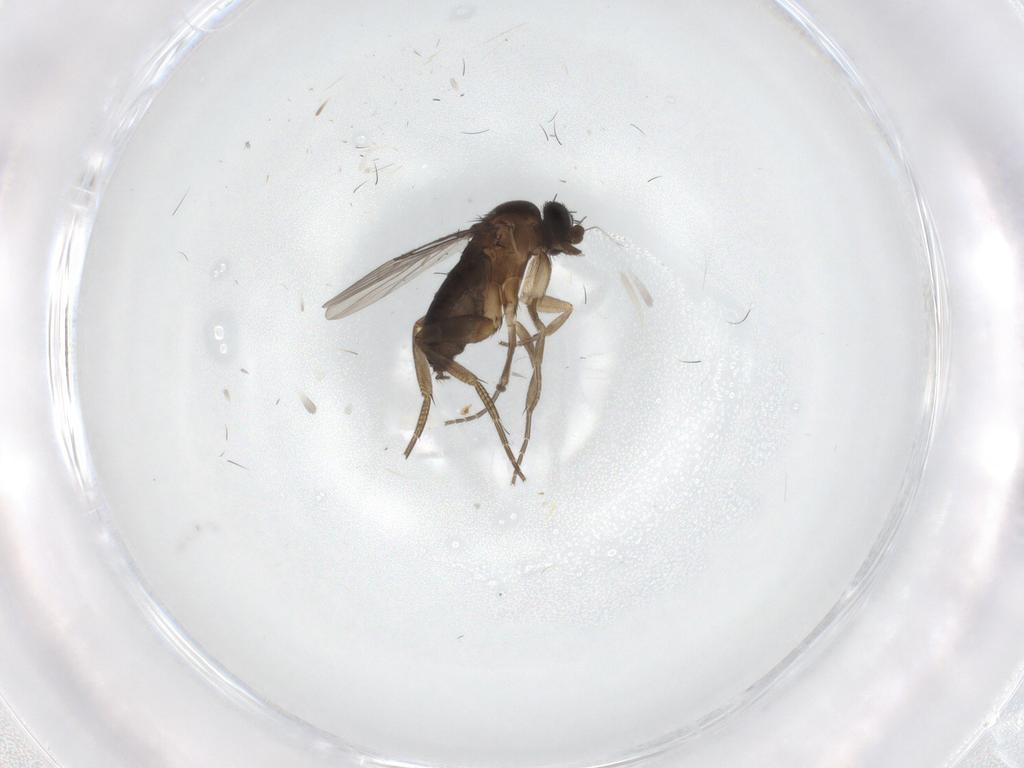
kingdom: Animalia
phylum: Arthropoda
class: Insecta
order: Diptera
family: Phoridae
